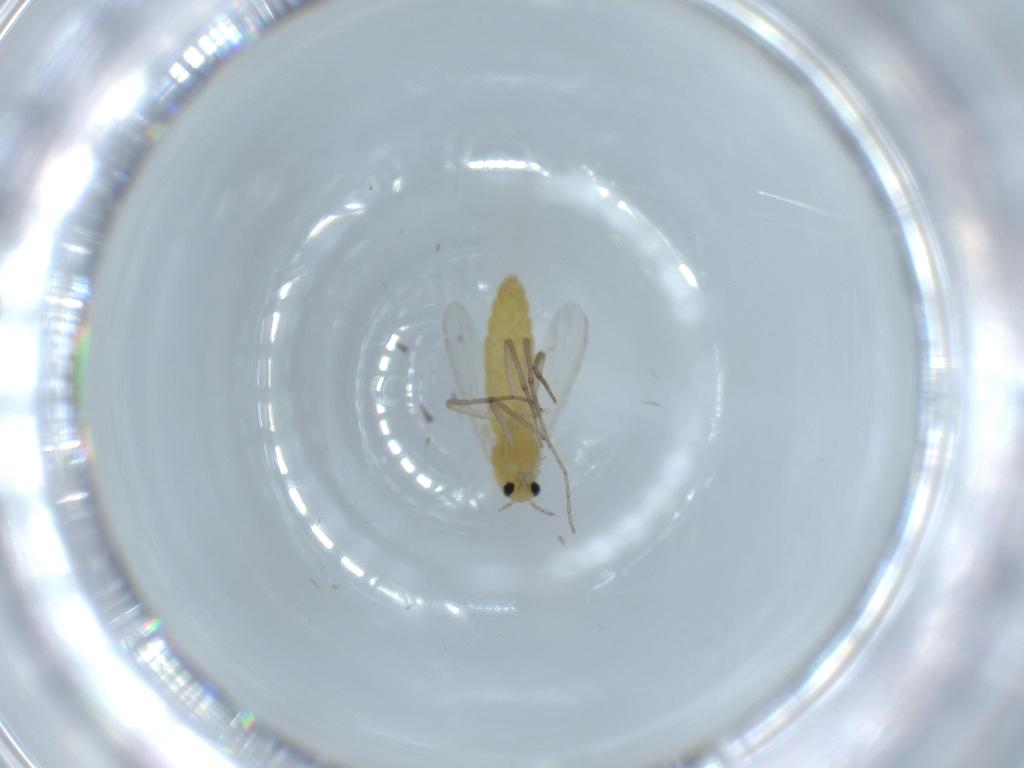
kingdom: Animalia
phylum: Arthropoda
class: Insecta
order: Diptera
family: Chironomidae
